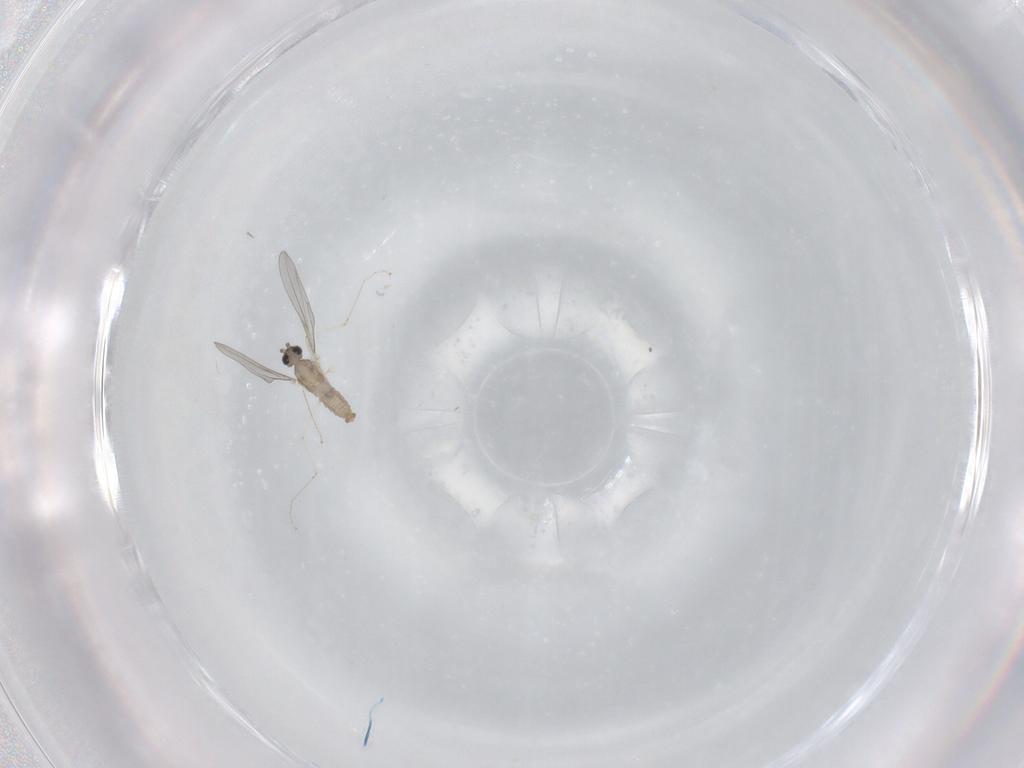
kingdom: Animalia
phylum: Arthropoda
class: Insecta
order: Diptera
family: Cecidomyiidae
